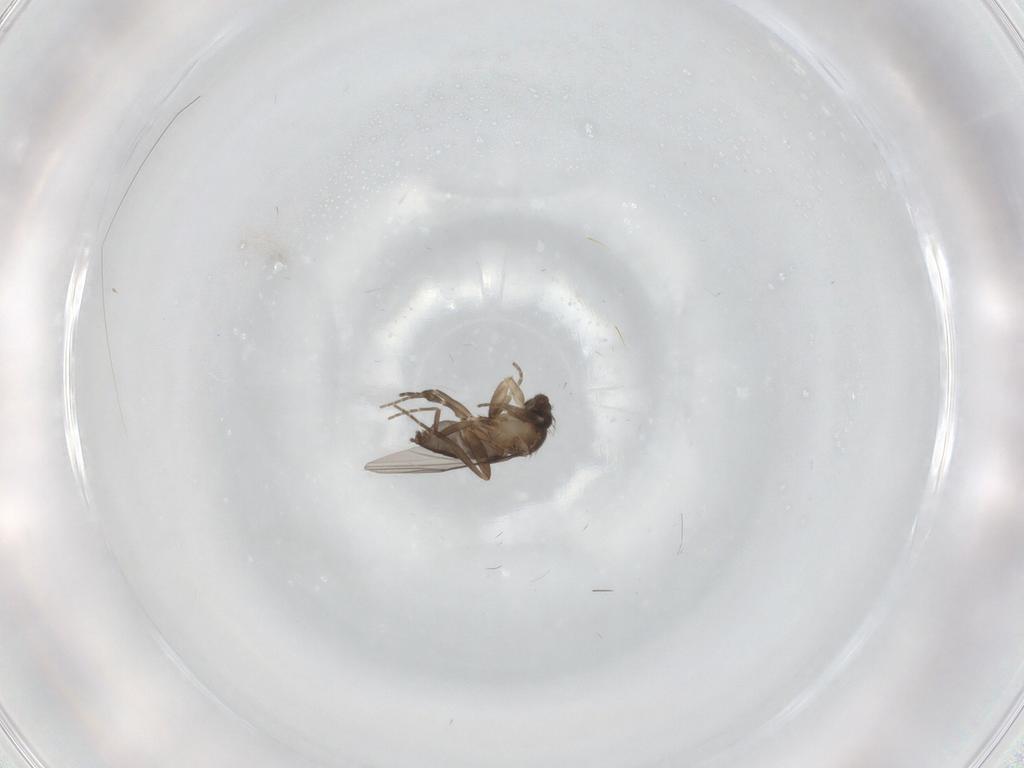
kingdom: Animalia
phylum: Arthropoda
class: Insecta
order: Diptera
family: Phoridae
